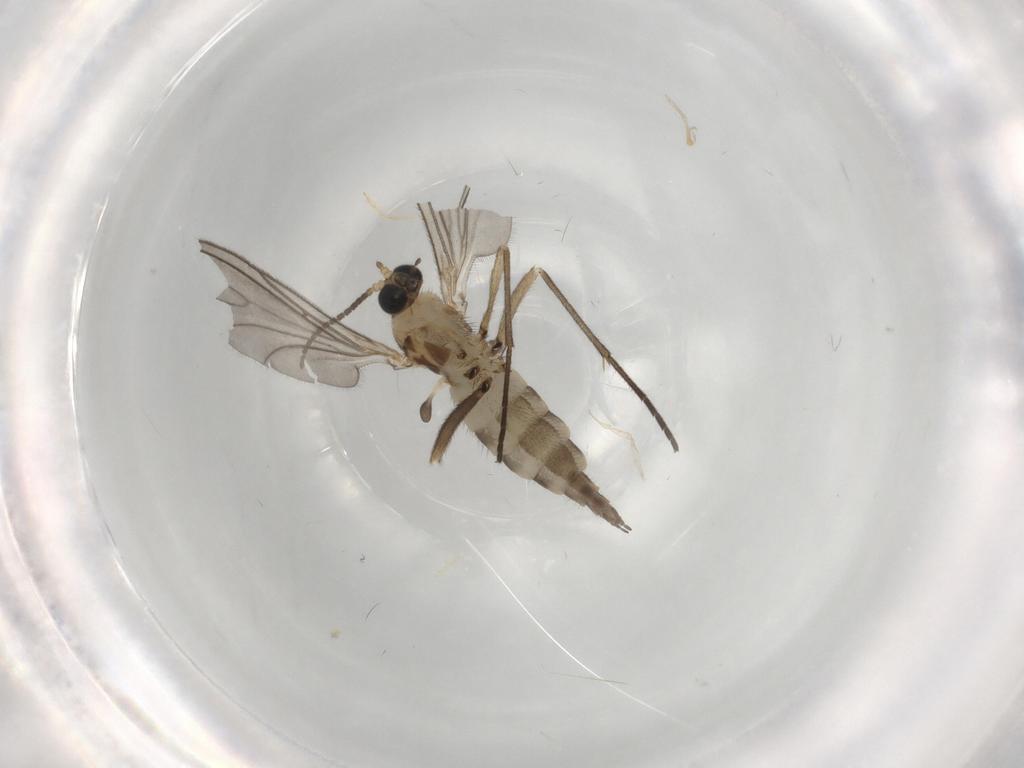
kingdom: Animalia
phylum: Arthropoda
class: Insecta
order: Diptera
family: Sciaridae
